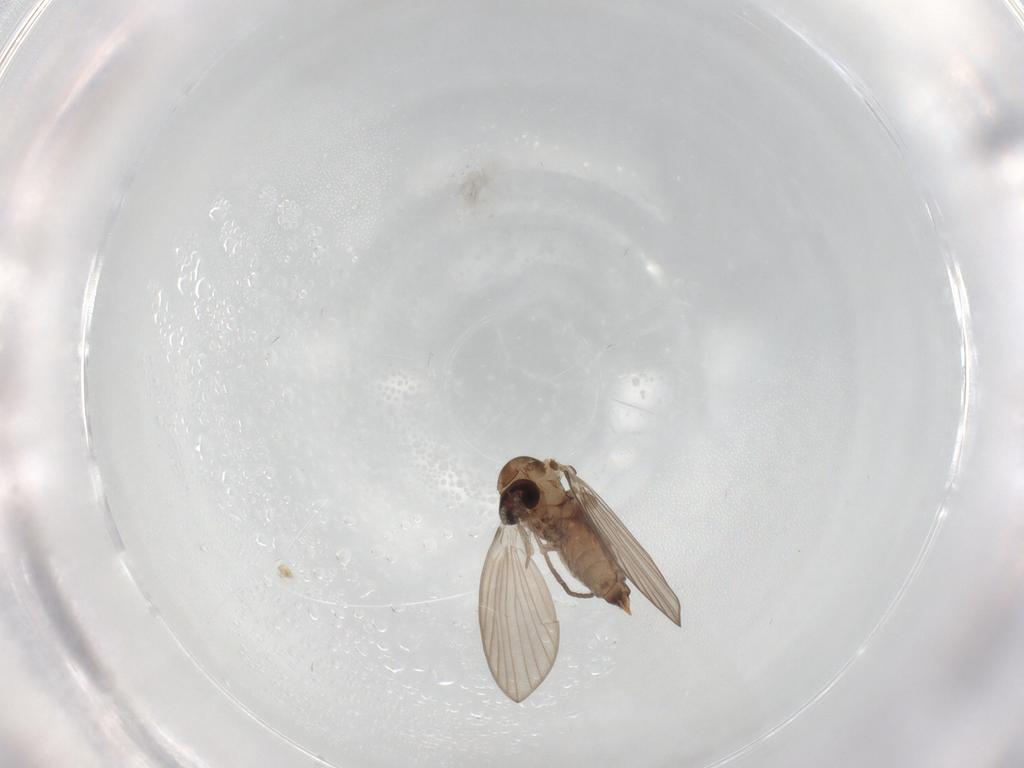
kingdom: Animalia
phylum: Arthropoda
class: Insecta
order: Diptera
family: Psychodidae
